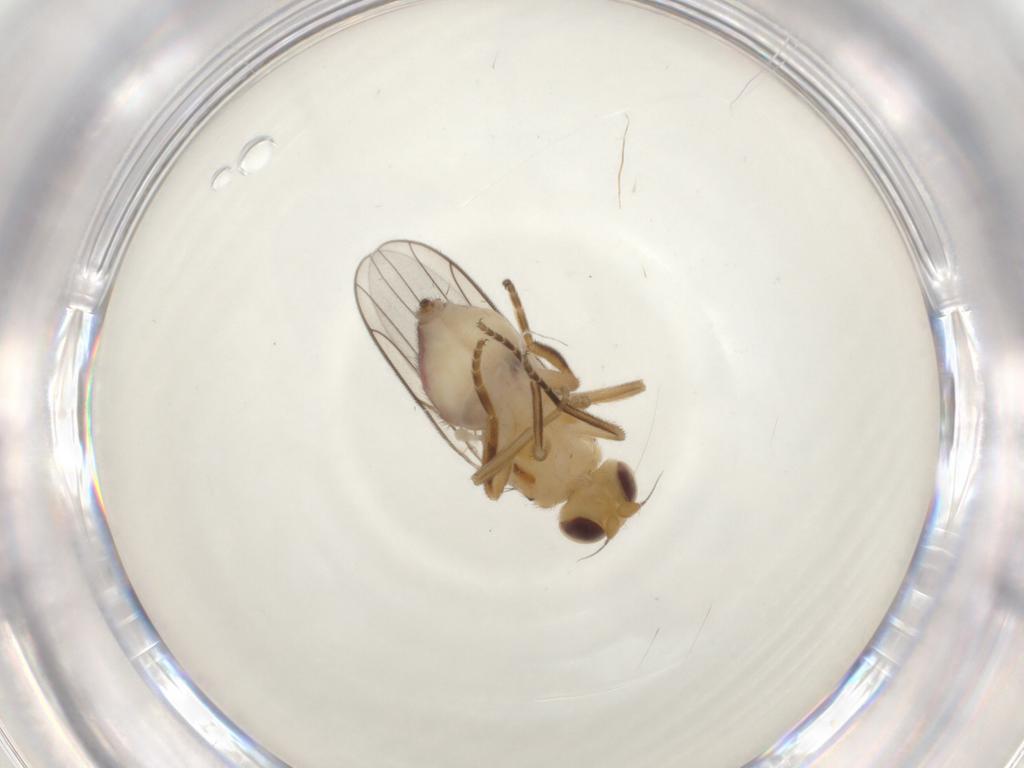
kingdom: Animalia
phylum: Arthropoda
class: Insecta
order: Diptera
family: Chloropidae
